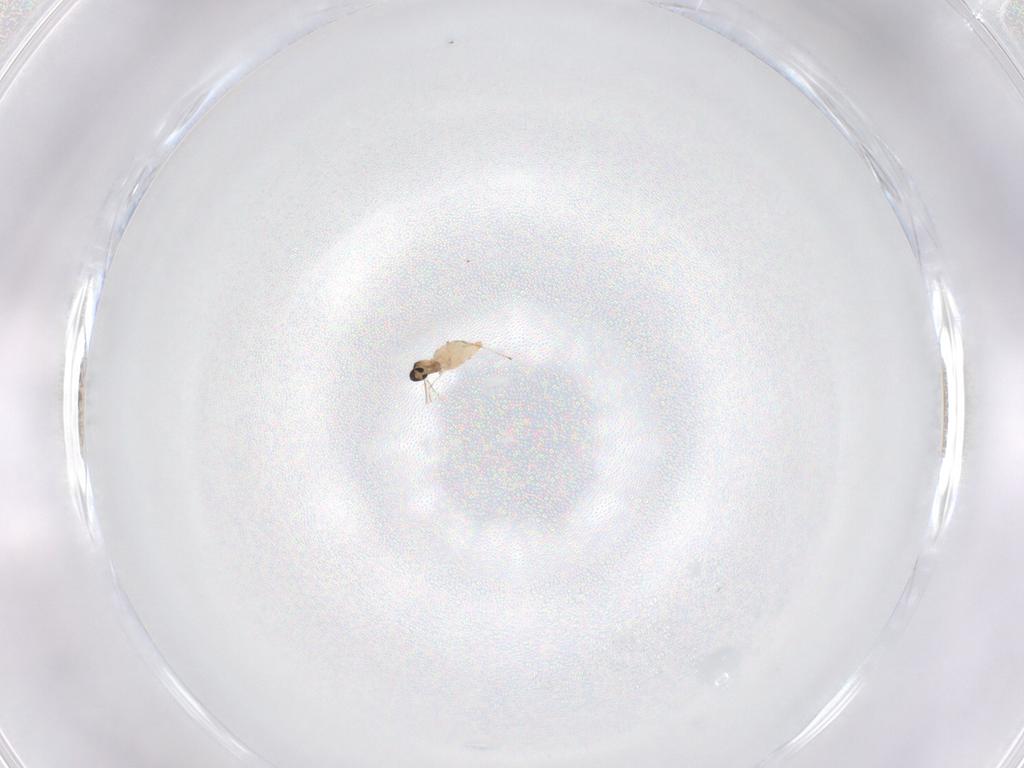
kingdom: Animalia
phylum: Arthropoda
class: Insecta
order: Diptera
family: Cecidomyiidae
